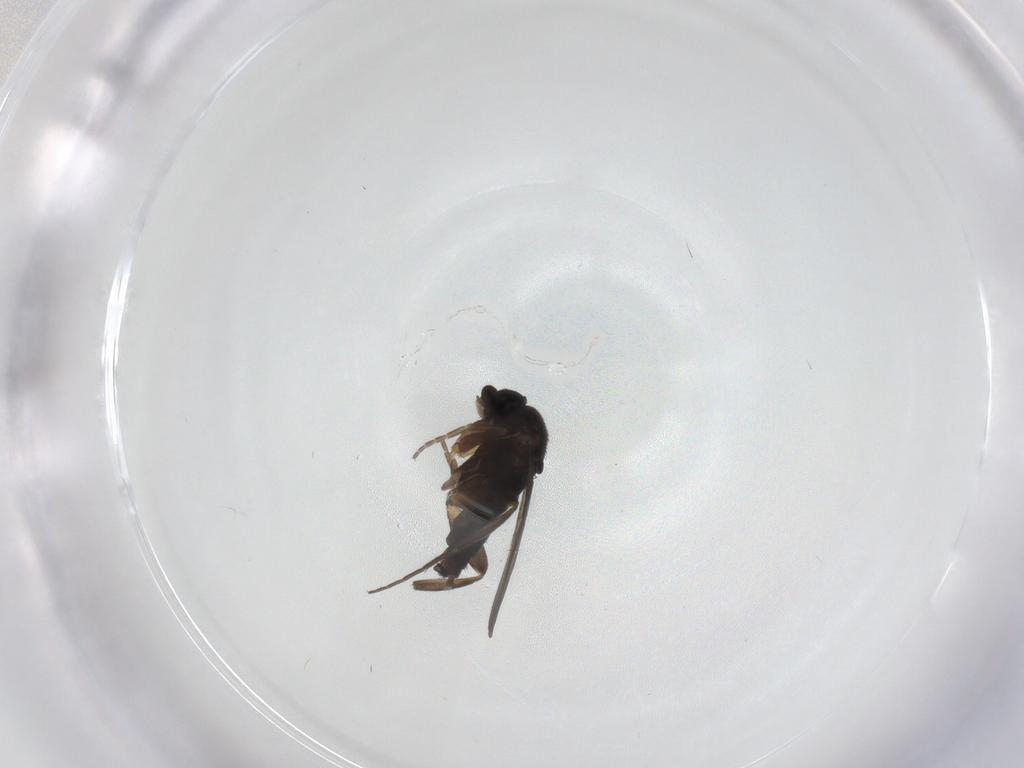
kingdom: Animalia
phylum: Arthropoda
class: Insecta
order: Diptera
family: Phoridae
